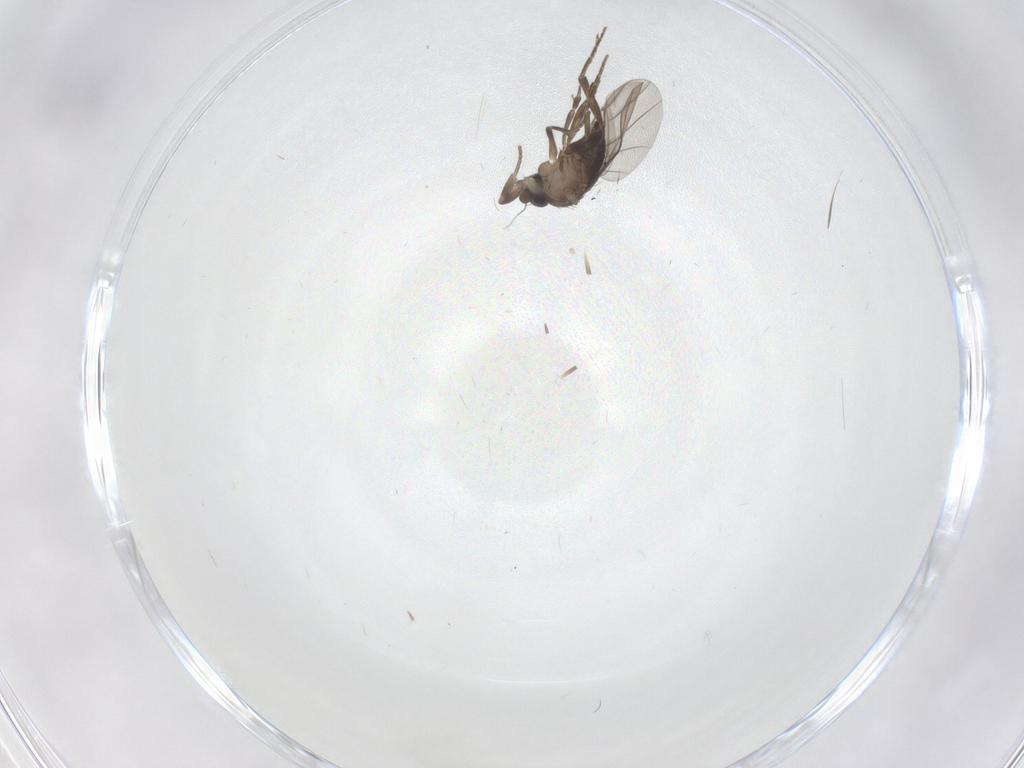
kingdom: Animalia
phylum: Arthropoda
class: Insecta
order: Diptera
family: Phoridae
